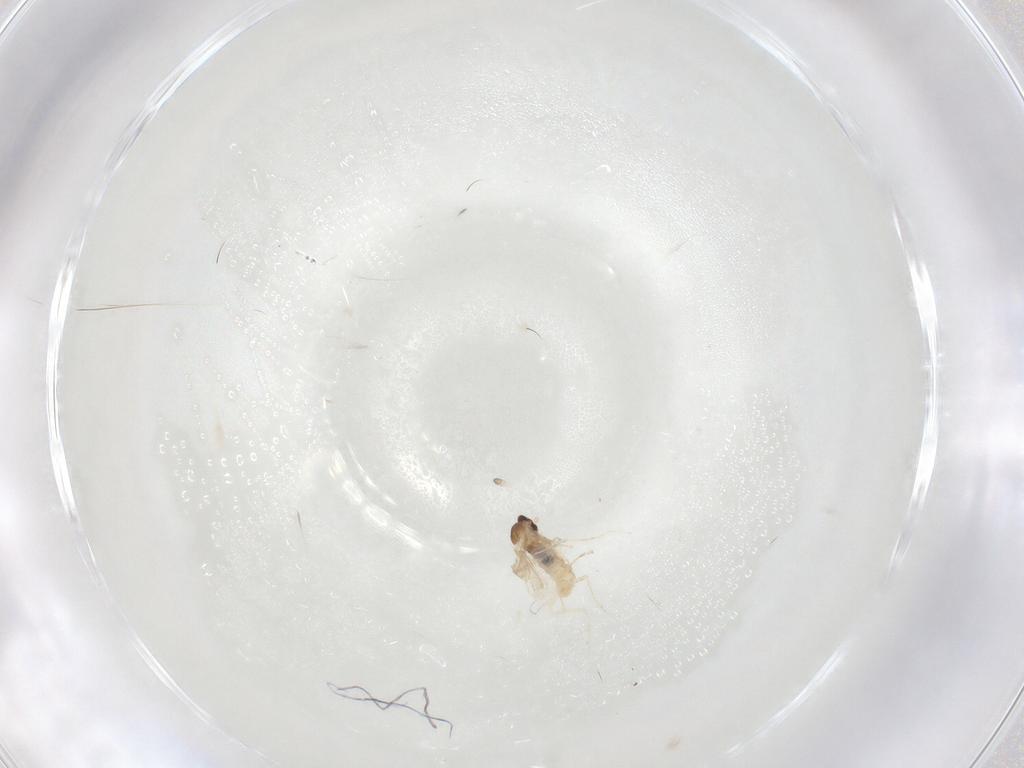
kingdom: Animalia
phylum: Arthropoda
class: Insecta
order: Diptera
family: Cecidomyiidae
